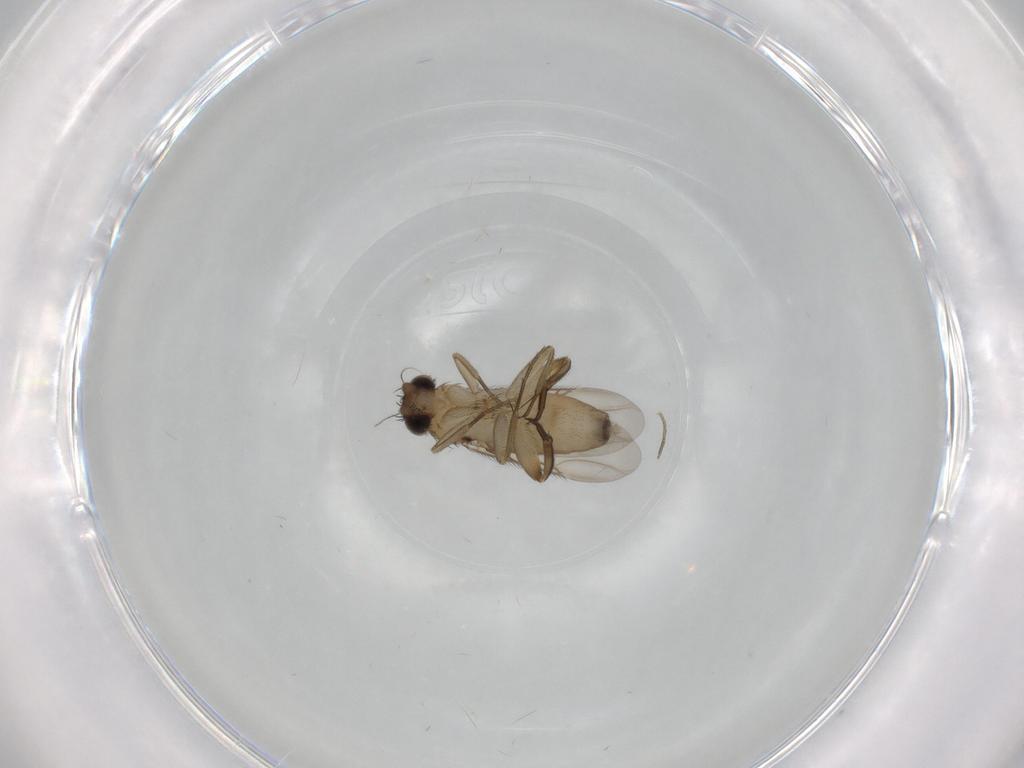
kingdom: Animalia
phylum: Arthropoda
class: Insecta
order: Diptera
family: Phoridae
